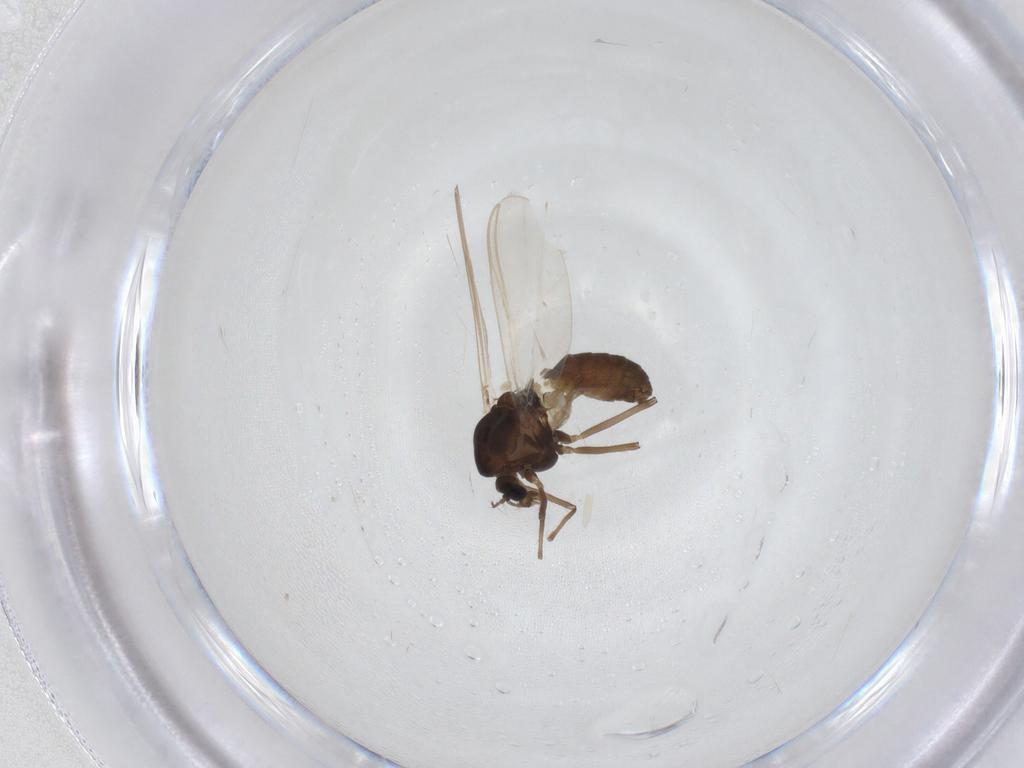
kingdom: Animalia
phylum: Arthropoda
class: Insecta
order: Diptera
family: Chironomidae
